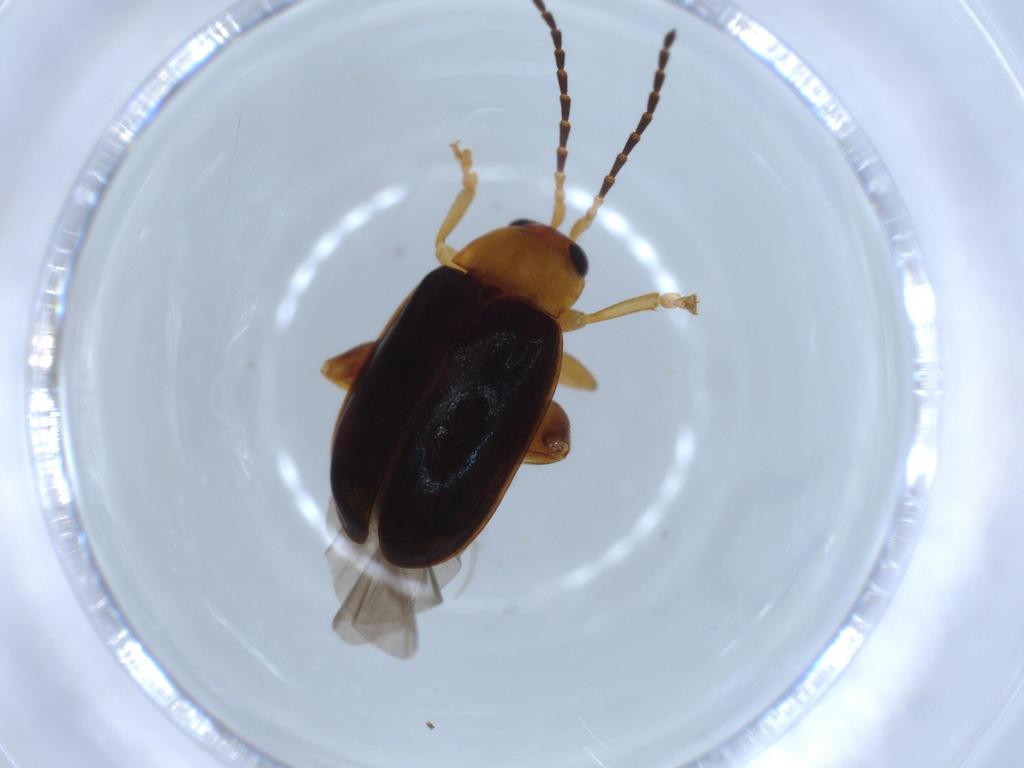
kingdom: Animalia
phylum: Arthropoda
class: Insecta
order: Coleoptera
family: Chrysomelidae
